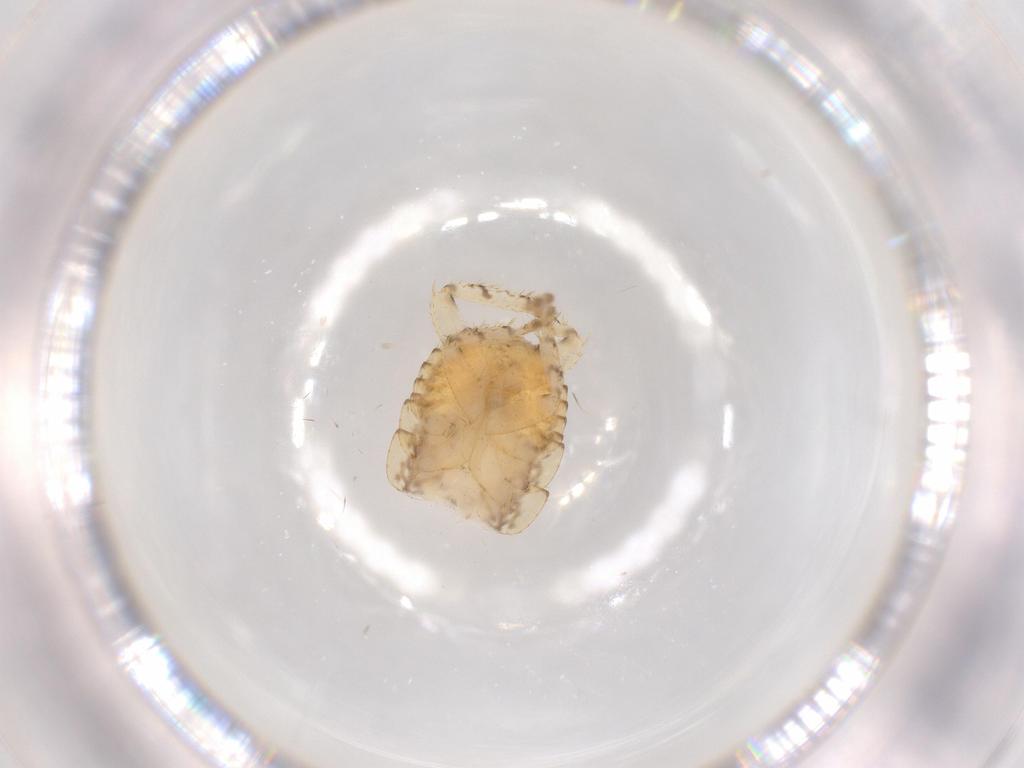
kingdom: Animalia
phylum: Arthropoda
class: Insecta
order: Blattodea
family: Ectobiidae
